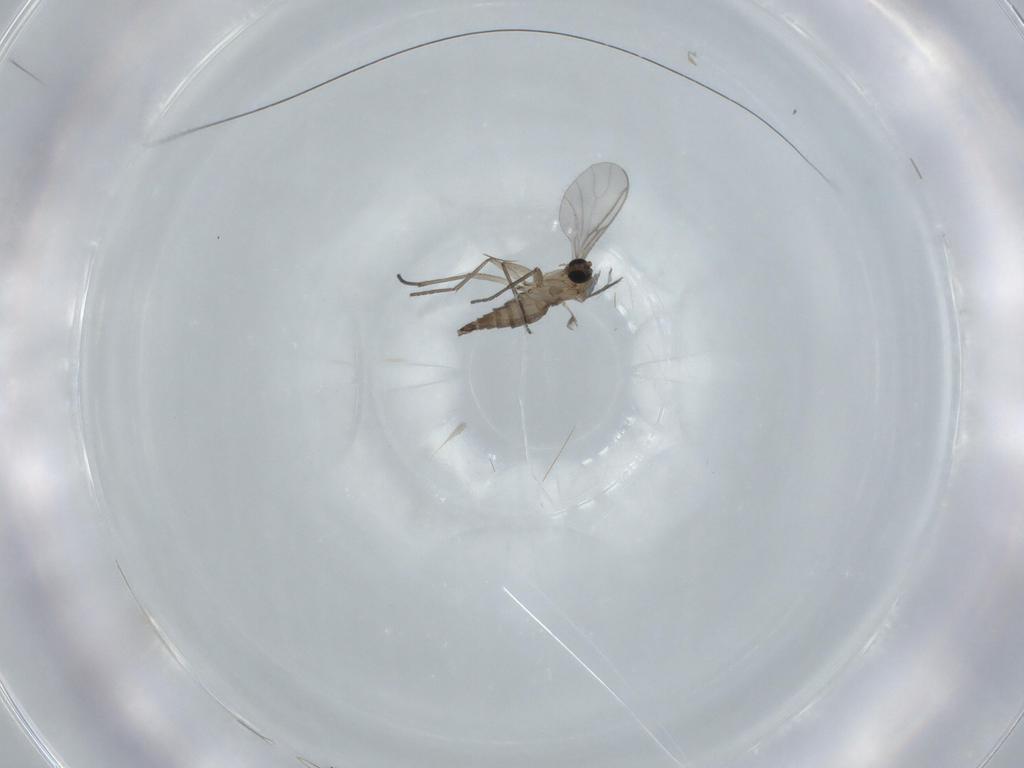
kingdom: Animalia
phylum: Arthropoda
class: Insecta
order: Diptera
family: Sciaridae
